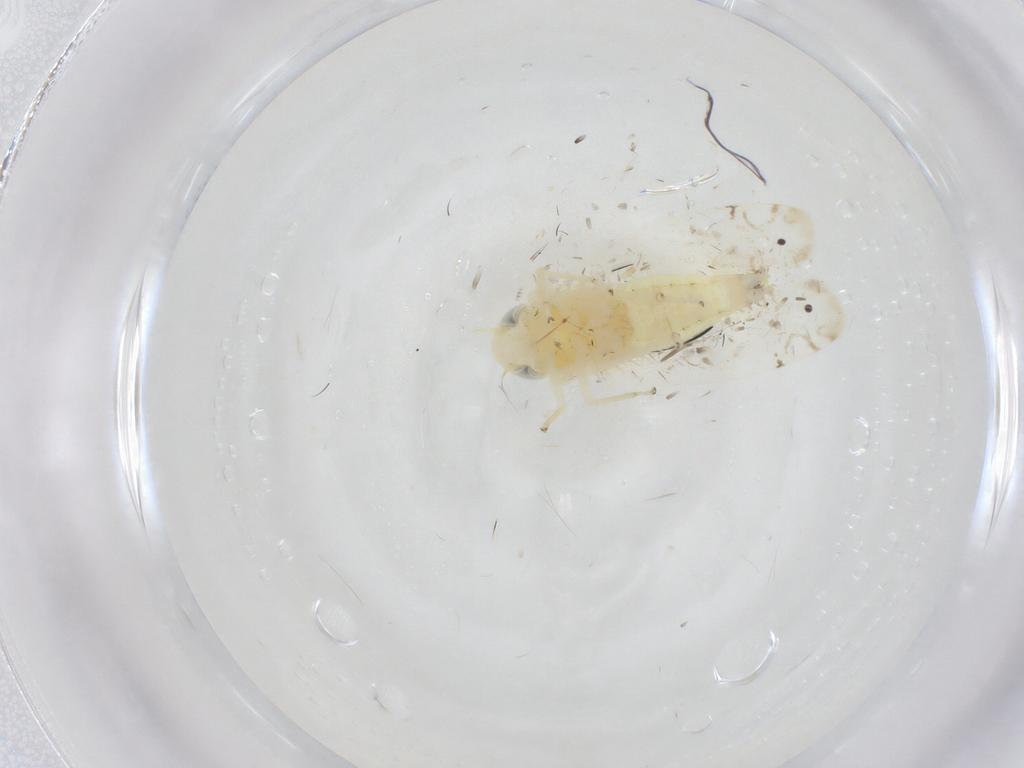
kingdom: Animalia
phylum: Arthropoda
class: Insecta
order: Hemiptera
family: Cicadellidae
